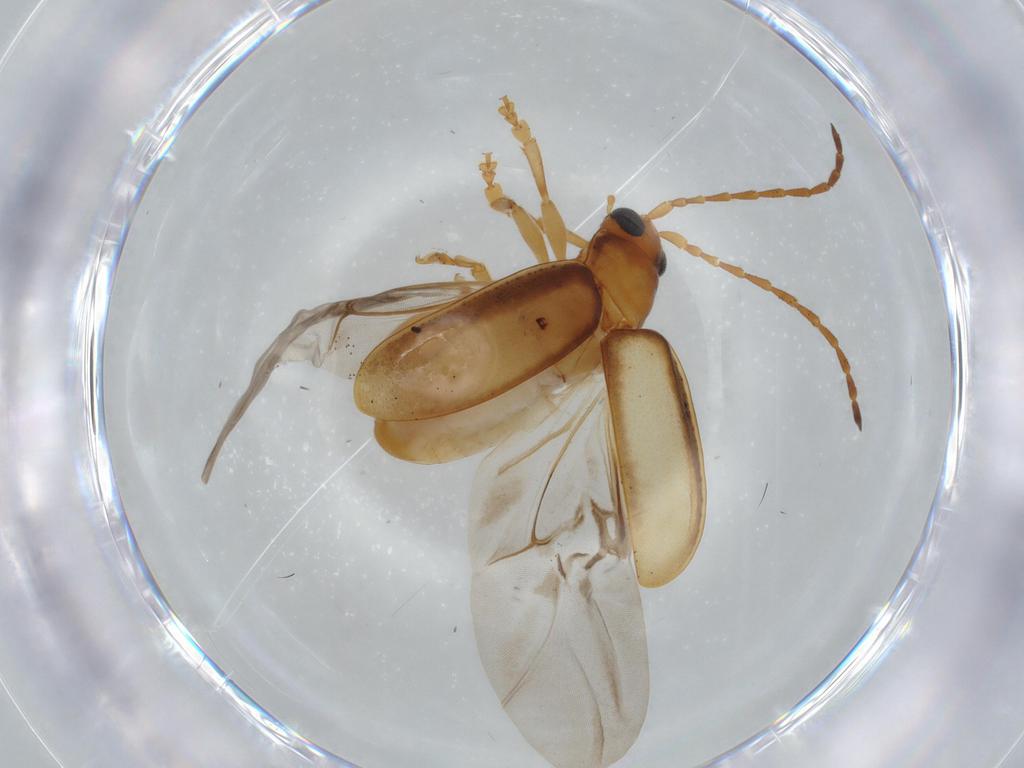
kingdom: Animalia
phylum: Arthropoda
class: Insecta
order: Coleoptera
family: Chrysomelidae
